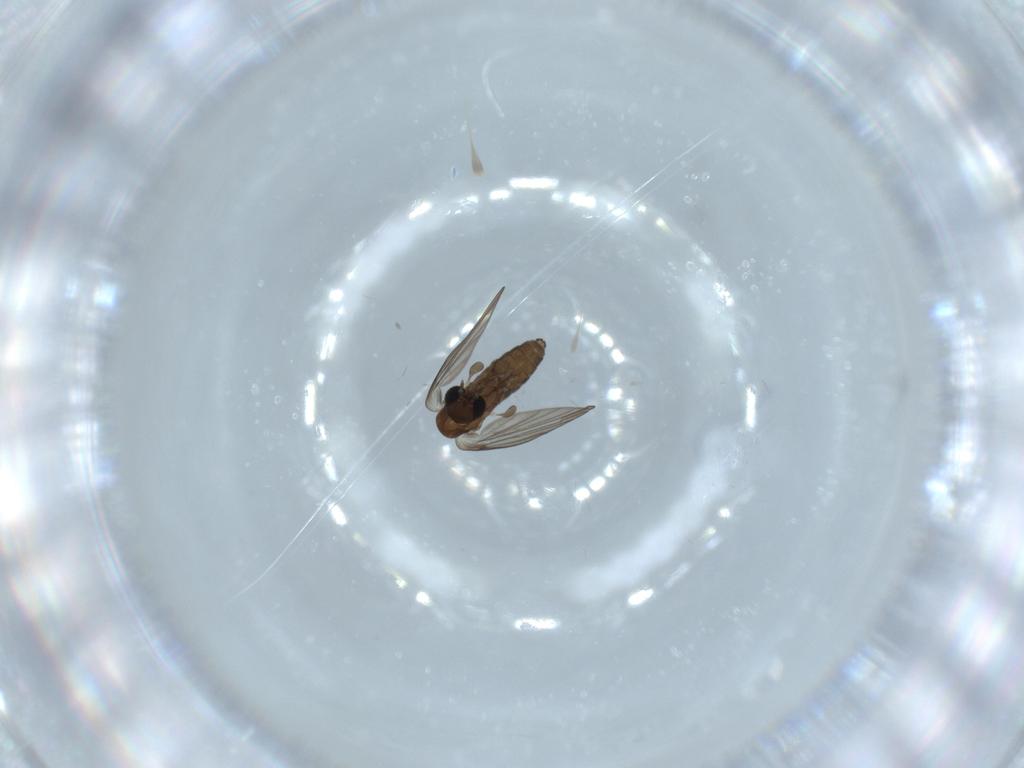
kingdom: Animalia
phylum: Arthropoda
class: Insecta
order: Diptera
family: Psychodidae
